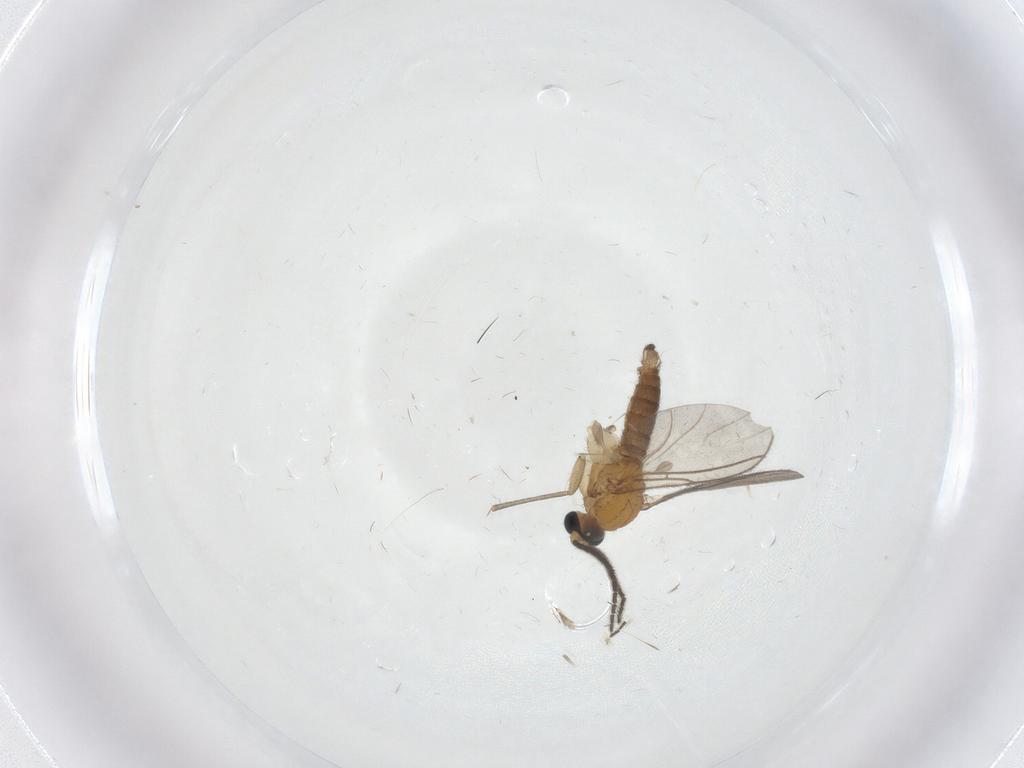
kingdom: Animalia
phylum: Arthropoda
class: Insecta
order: Diptera
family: Sciaridae
